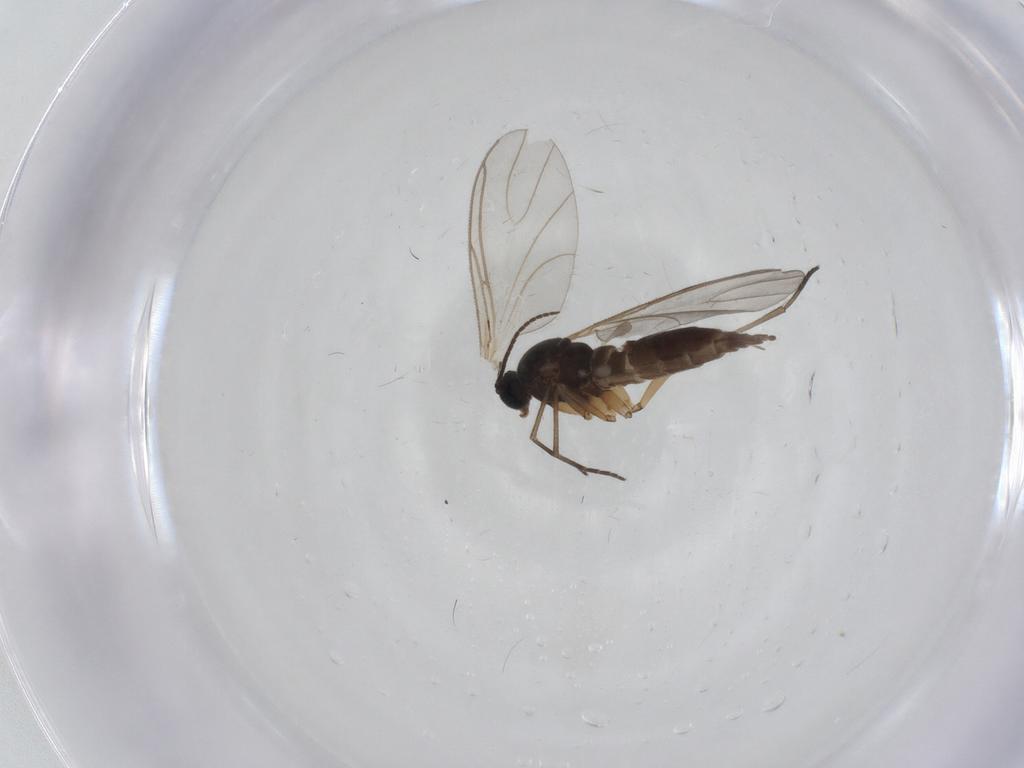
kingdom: Animalia
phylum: Arthropoda
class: Insecta
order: Diptera
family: Sciaridae
